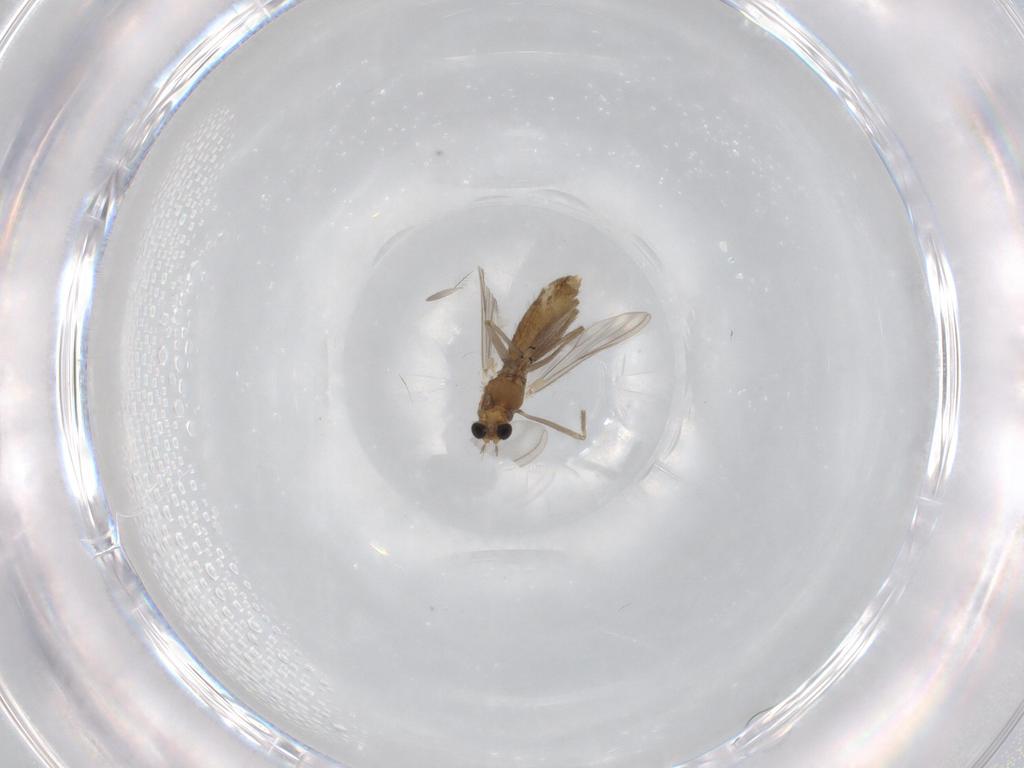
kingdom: Animalia
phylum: Arthropoda
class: Insecta
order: Diptera
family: Chironomidae
